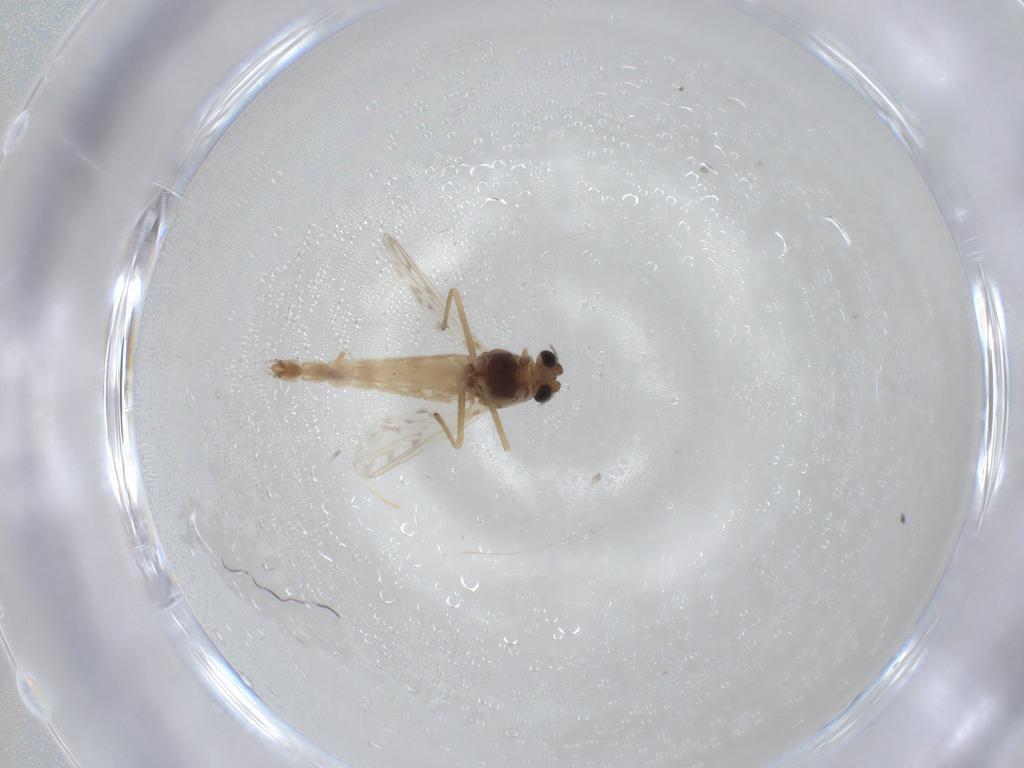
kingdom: Animalia
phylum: Arthropoda
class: Insecta
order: Diptera
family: Chironomidae
